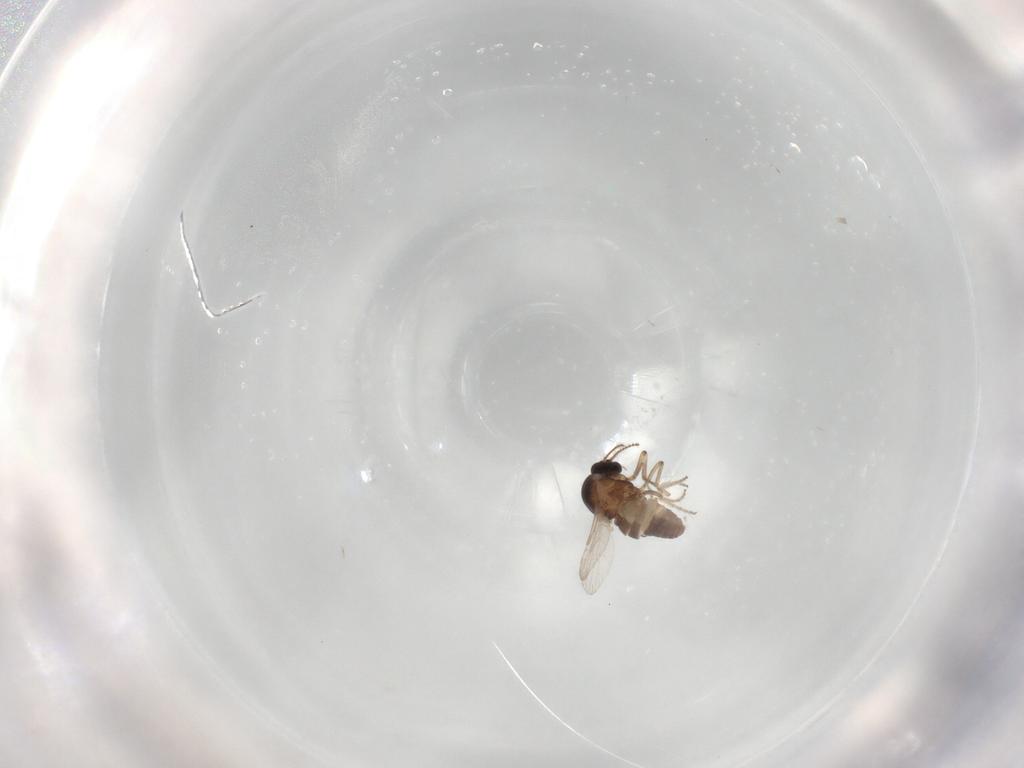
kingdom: Animalia
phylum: Arthropoda
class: Insecta
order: Diptera
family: Ceratopogonidae
